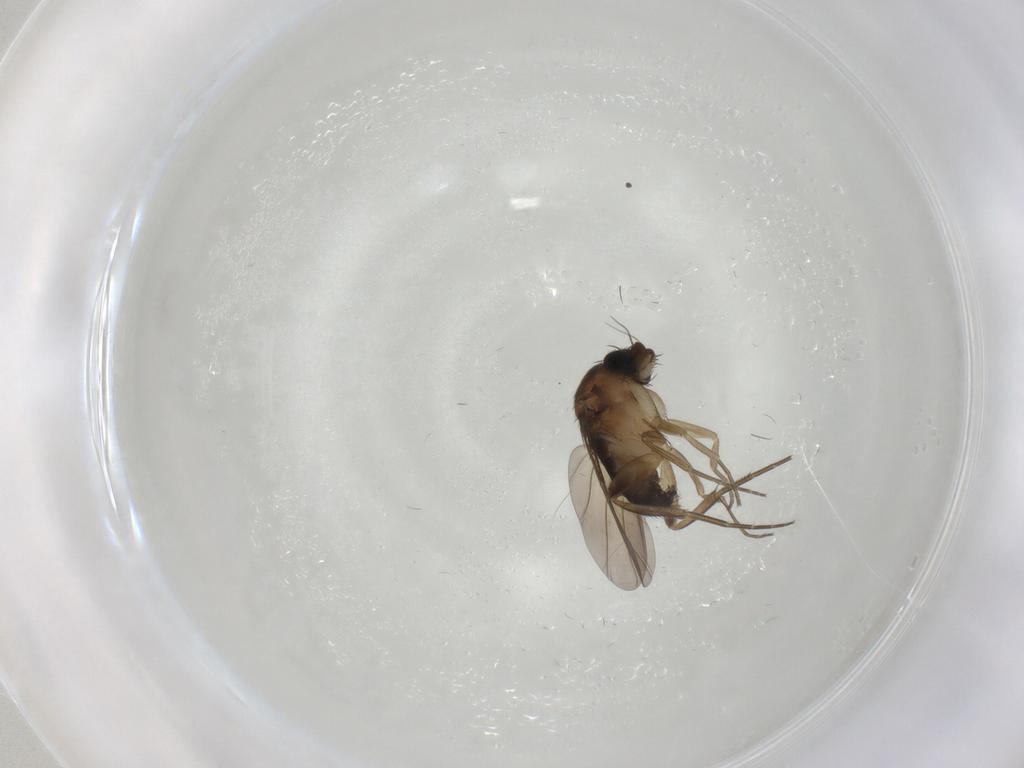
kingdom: Animalia
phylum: Arthropoda
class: Insecta
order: Diptera
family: Phoridae
